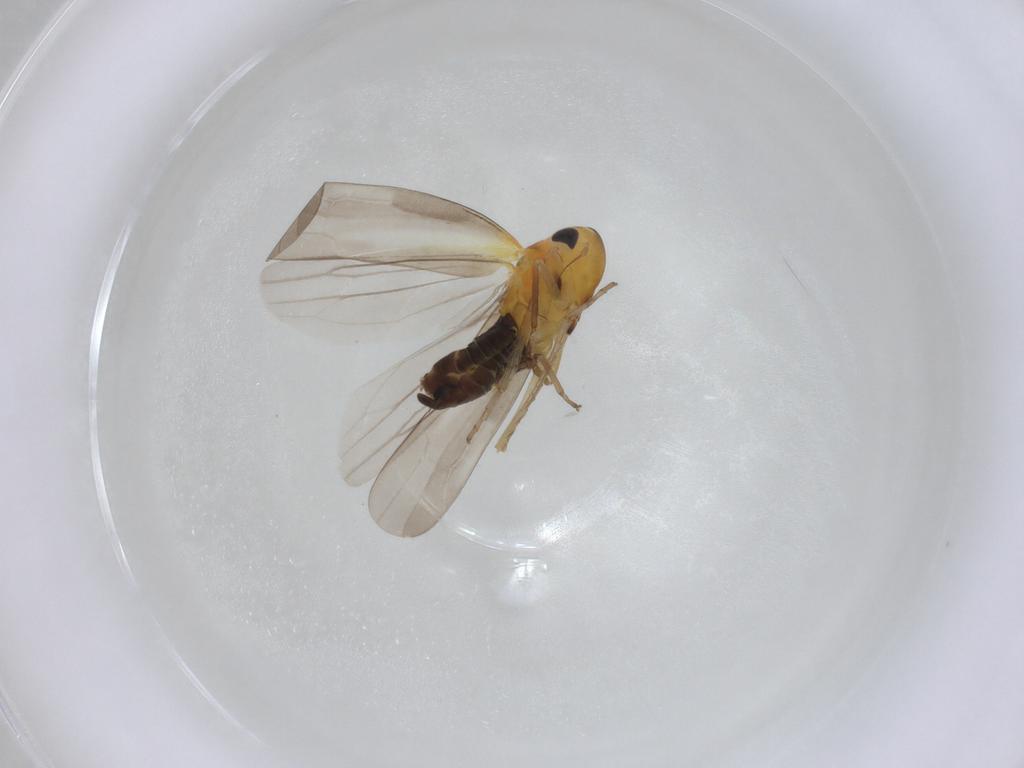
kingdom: Animalia
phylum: Arthropoda
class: Insecta
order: Hemiptera
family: Cicadellidae
